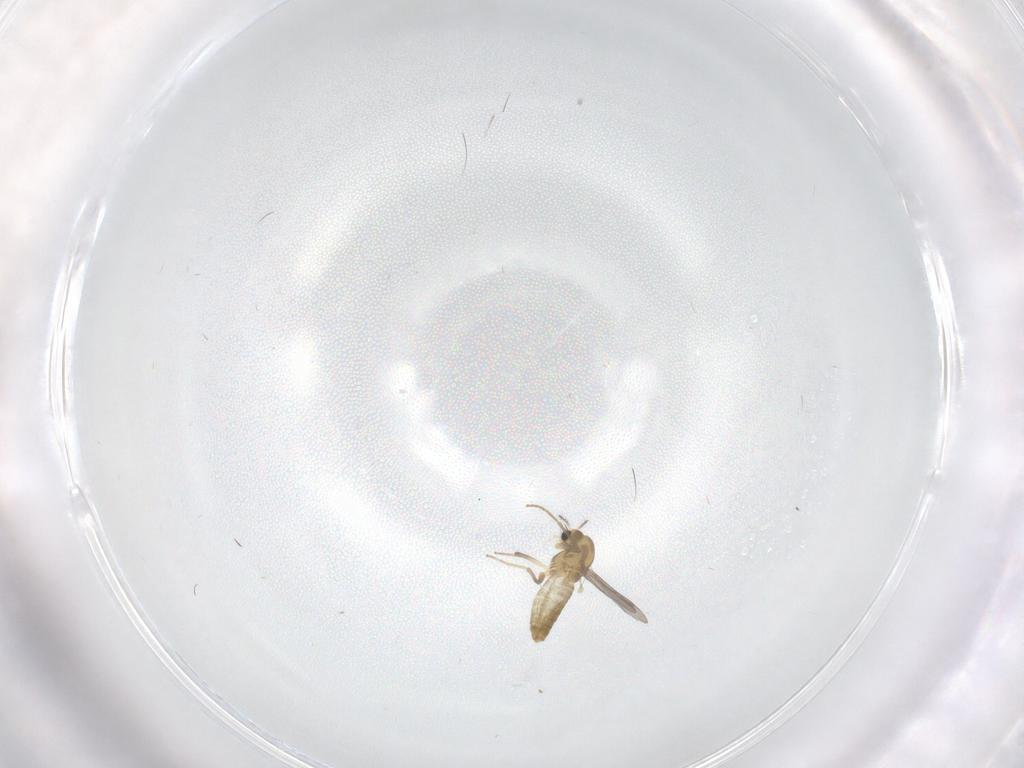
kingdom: Animalia
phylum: Arthropoda
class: Insecta
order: Diptera
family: Chironomidae
